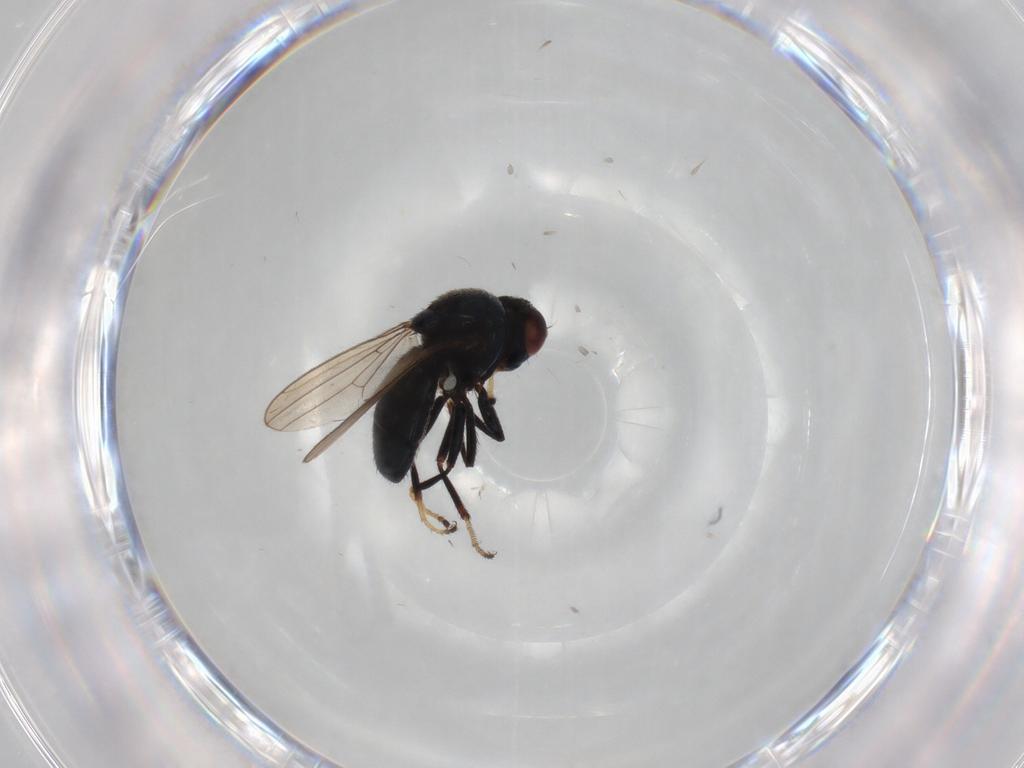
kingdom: Animalia
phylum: Arthropoda
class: Insecta
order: Diptera
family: Ephydridae
